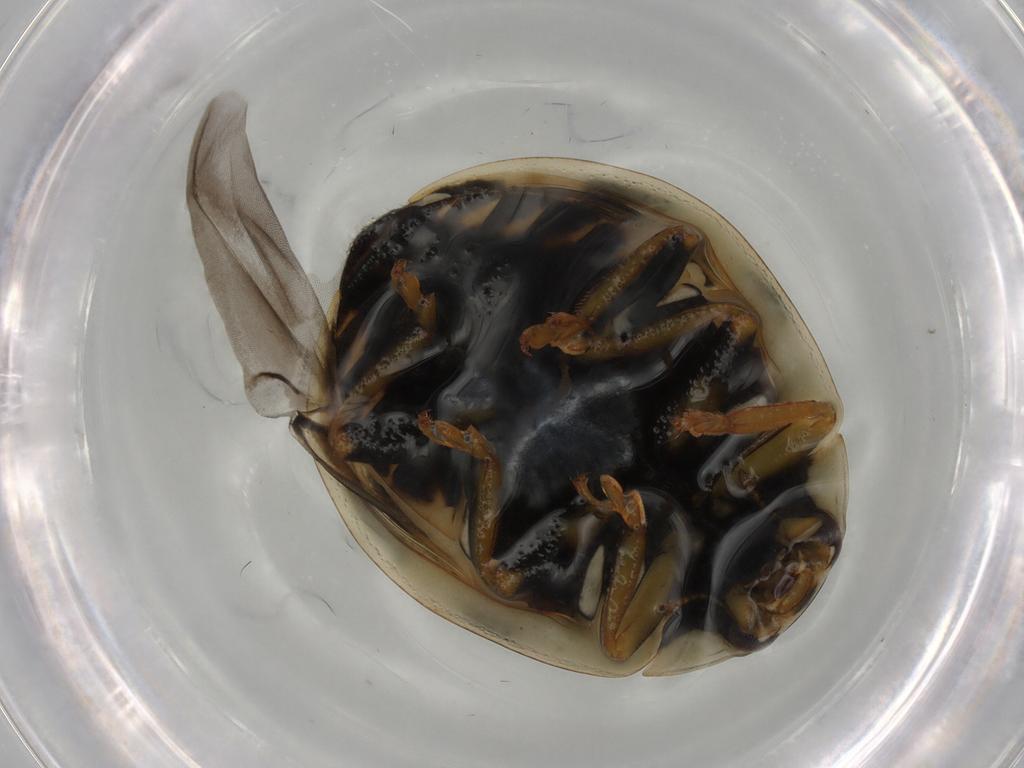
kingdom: Animalia
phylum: Arthropoda
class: Insecta
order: Coleoptera
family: Coccinellidae
